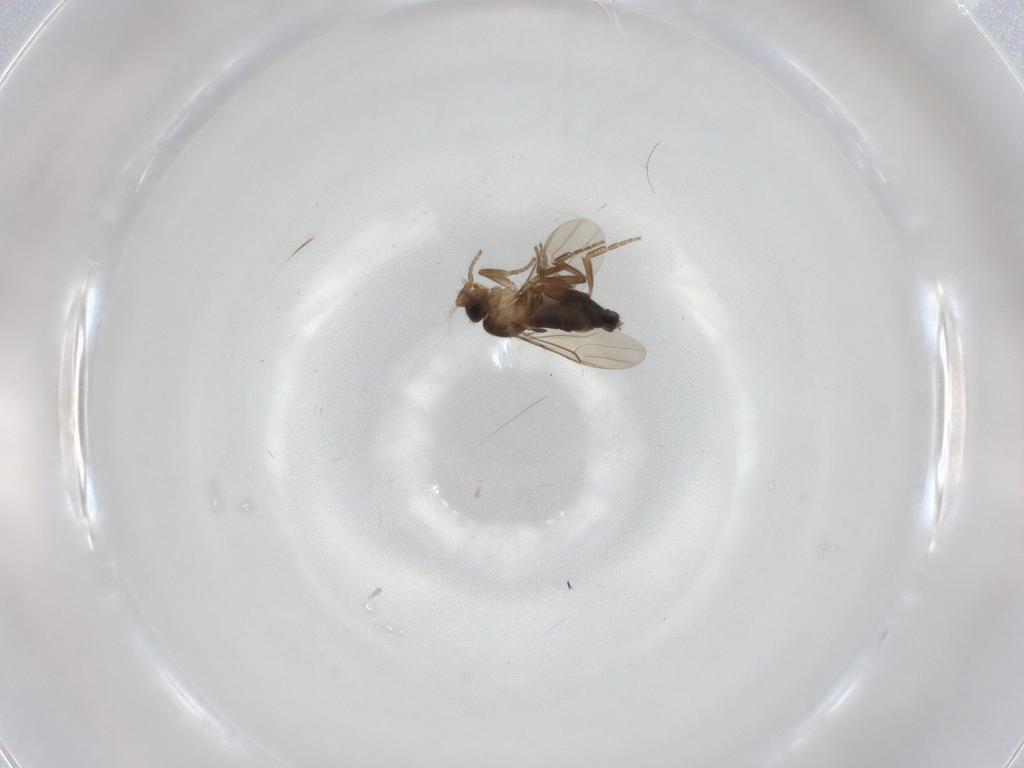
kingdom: Animalia
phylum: Arthropoda
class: Insecta
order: Diptera
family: Phoridae
